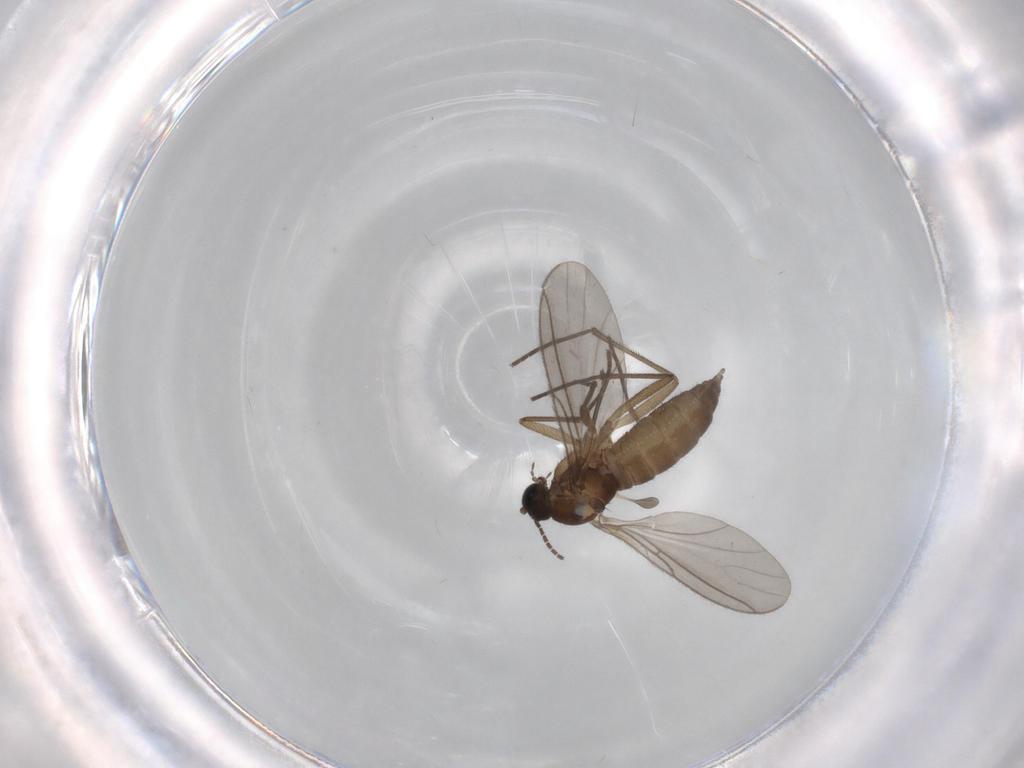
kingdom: Animalia
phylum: Arthropoda
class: Insecta
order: Diptera
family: Sciaridae
